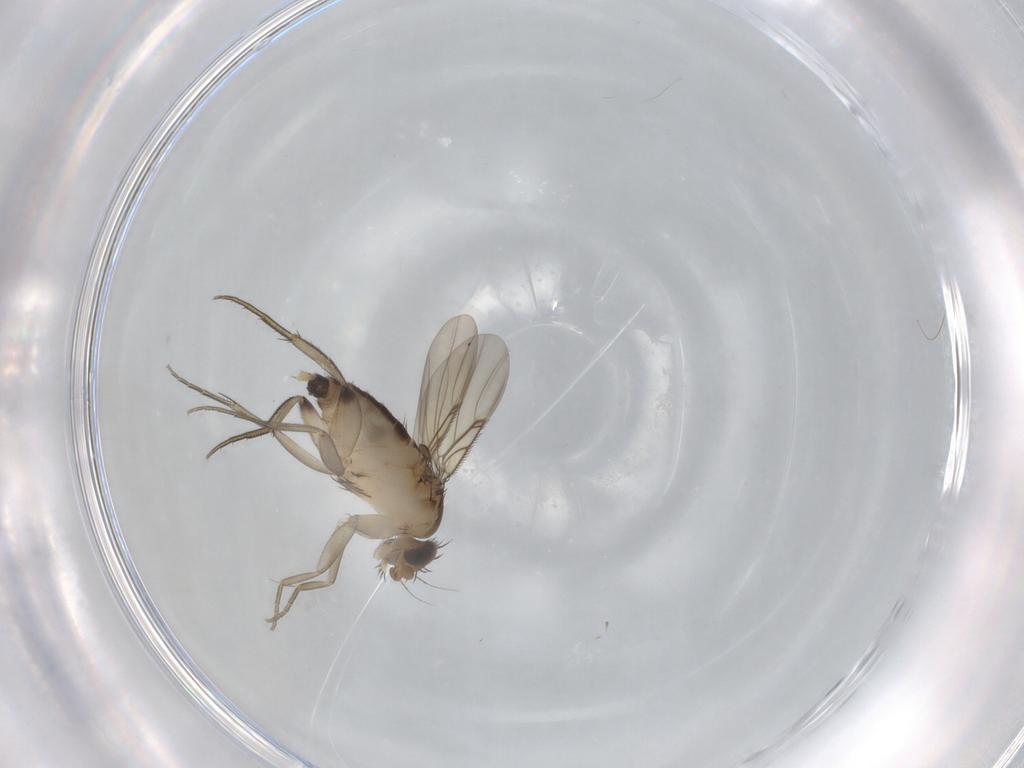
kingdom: Animalia
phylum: Arthropoda
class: Insecta
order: Diptera
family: Phoridae
